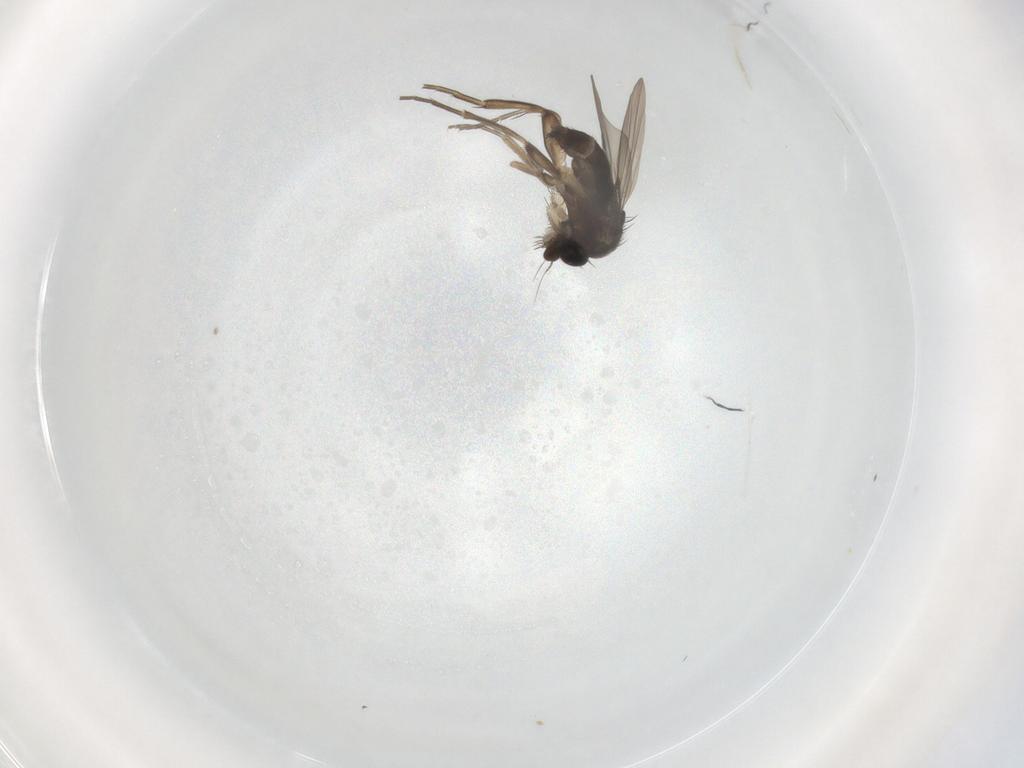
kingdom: Animalia
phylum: Arthropoda
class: Insecta
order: Diptera
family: Phoridae
